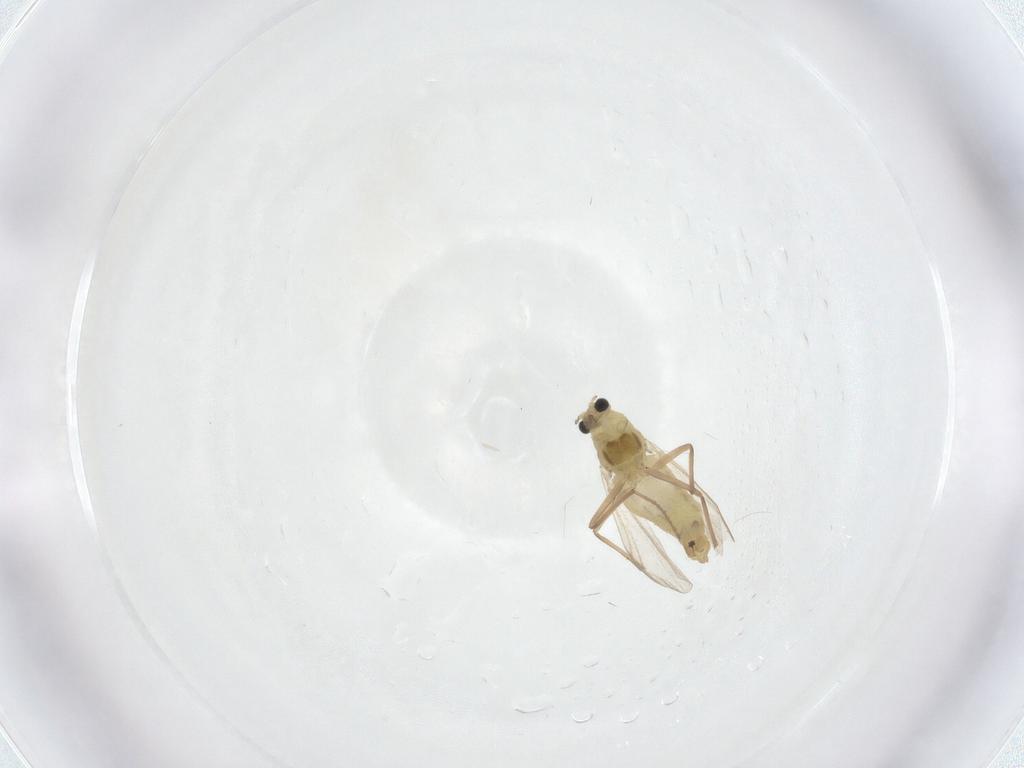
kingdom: Animalia
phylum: Arthropoda
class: Insecta
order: Diptera
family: Chironomidae
